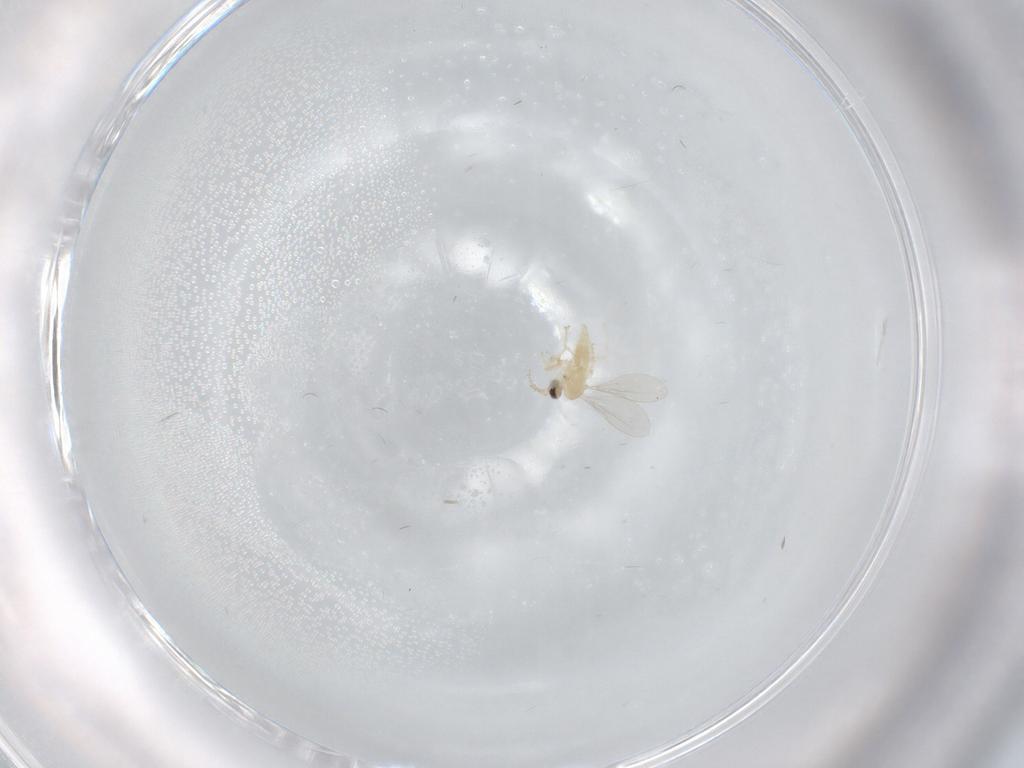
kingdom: Animalia
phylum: Arthropoda
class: Insecta
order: Diptera
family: Cecidomyiidae
